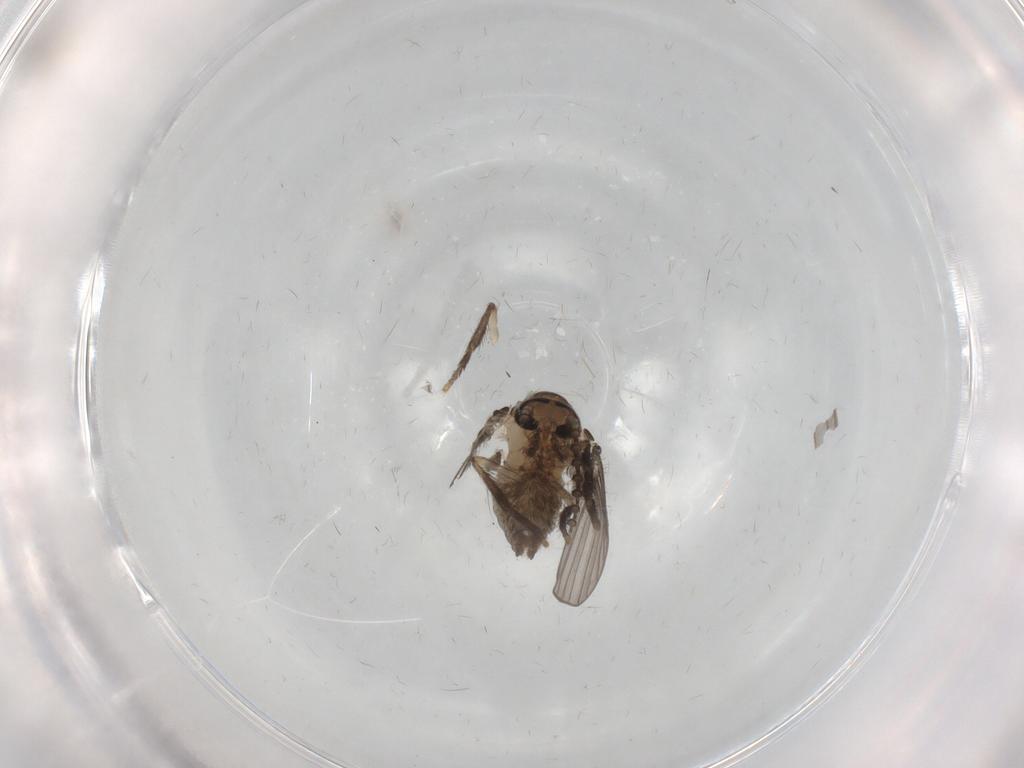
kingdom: Animalia
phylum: Arthropoda
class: Insecta
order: Diptera
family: Psychodidae
